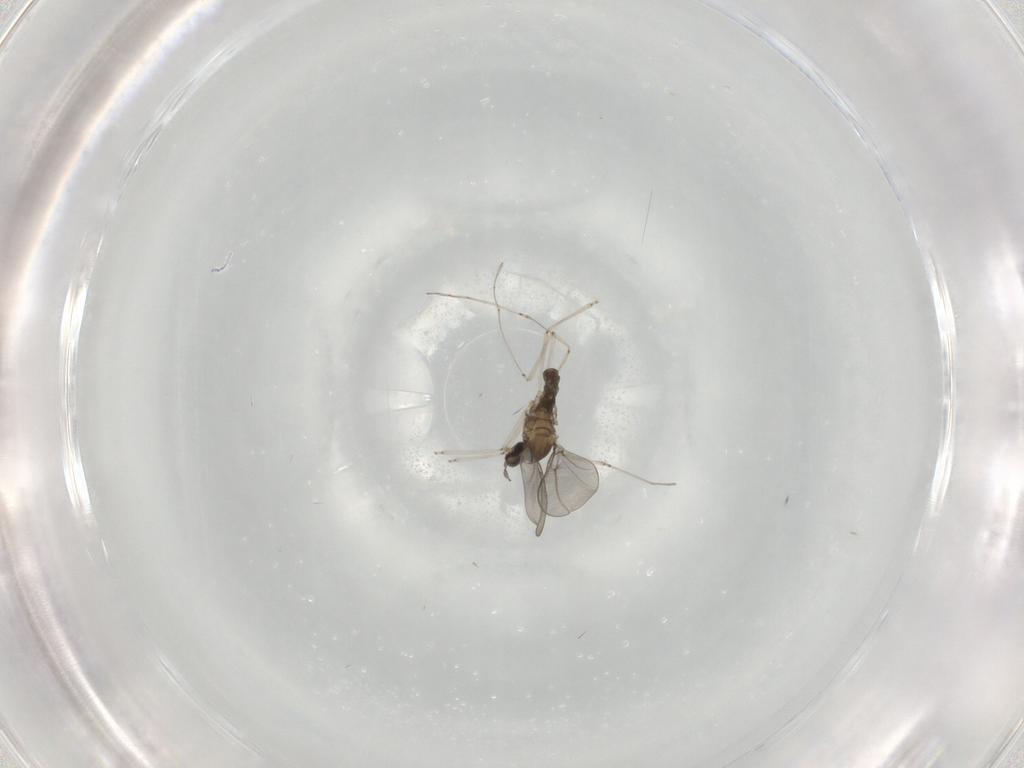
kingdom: Animalia
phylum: Arthropoda
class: Insecta
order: Diptera
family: Cecidomyiidae
